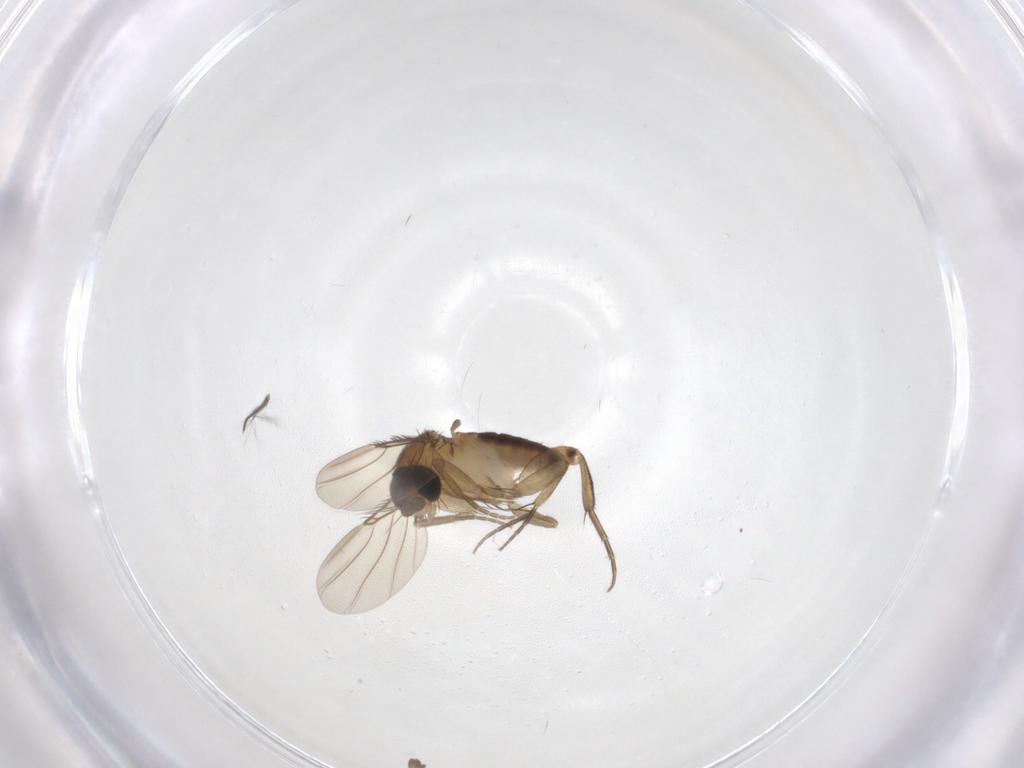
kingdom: Animalia
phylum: Arthropoda
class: Insecta
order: Diptera
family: Phoridae
